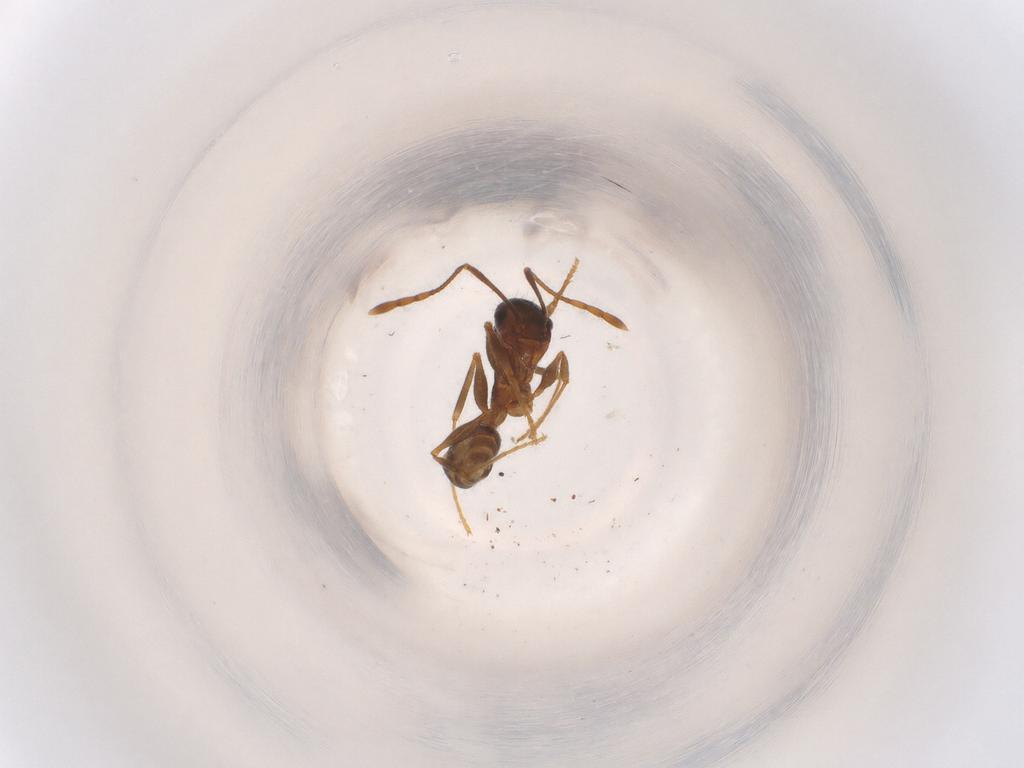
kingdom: Animalia
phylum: Arthropoda
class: Insecta
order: Hymenoptera
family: Formicidae
